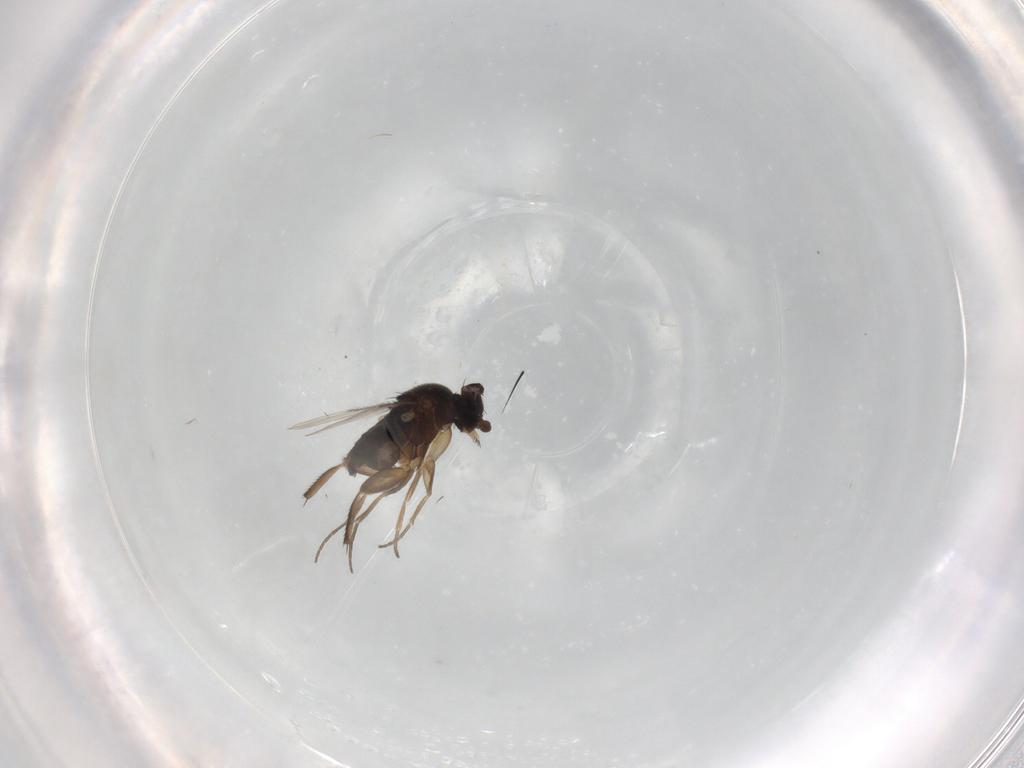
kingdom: Animalia
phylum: Arthropoda
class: Insecta
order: Diptera
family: Phoridae
